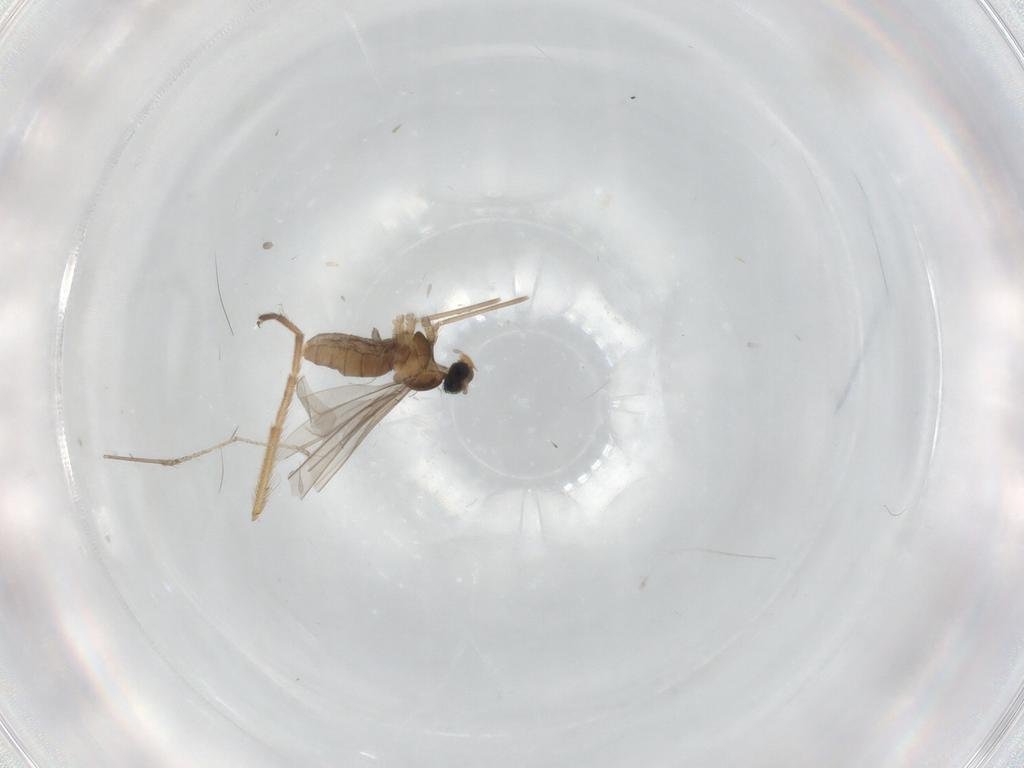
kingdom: Animalia
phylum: Arthropoda
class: Insecta
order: Diptera
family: Cecidomyiidae
